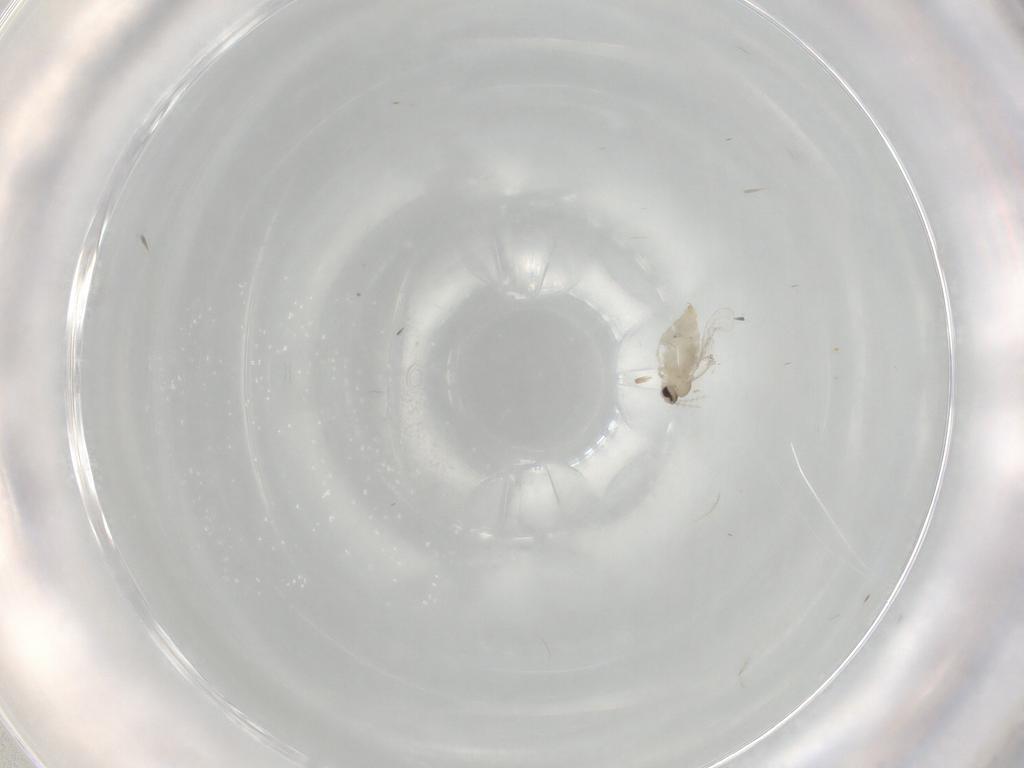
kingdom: Animalia
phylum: Arthropoda
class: Insecta
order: Diptera
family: Cecidomyiidae
